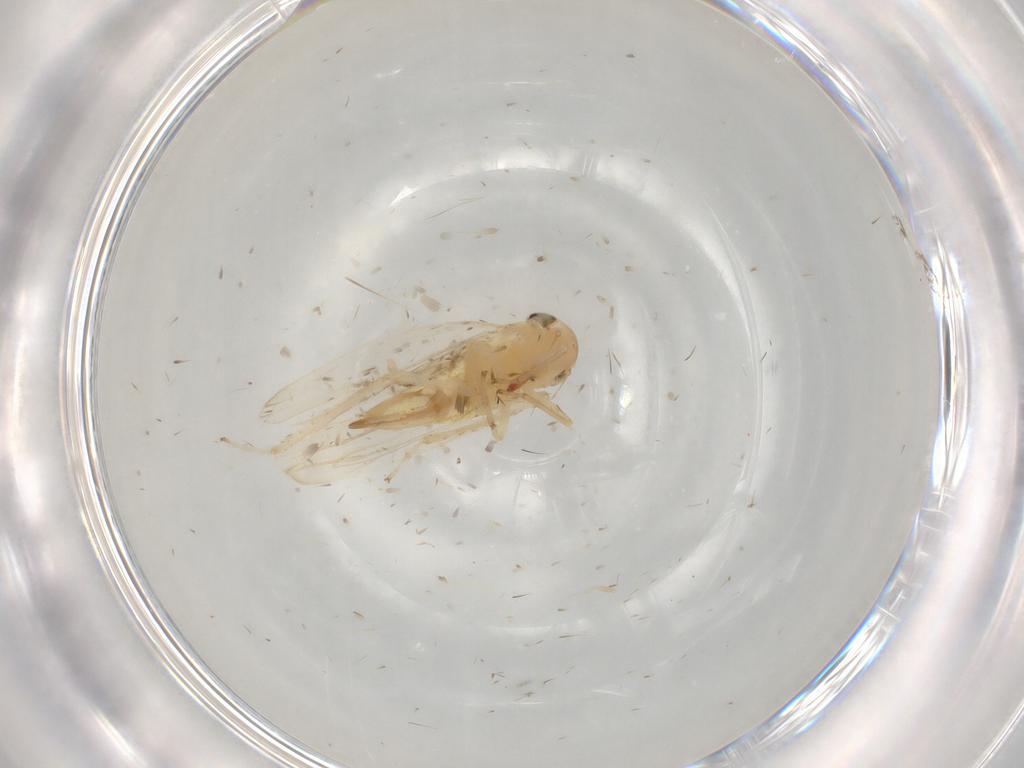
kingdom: Animalia
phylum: Arthropoda
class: Insecta
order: Hemiptera
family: Cicadellidae
